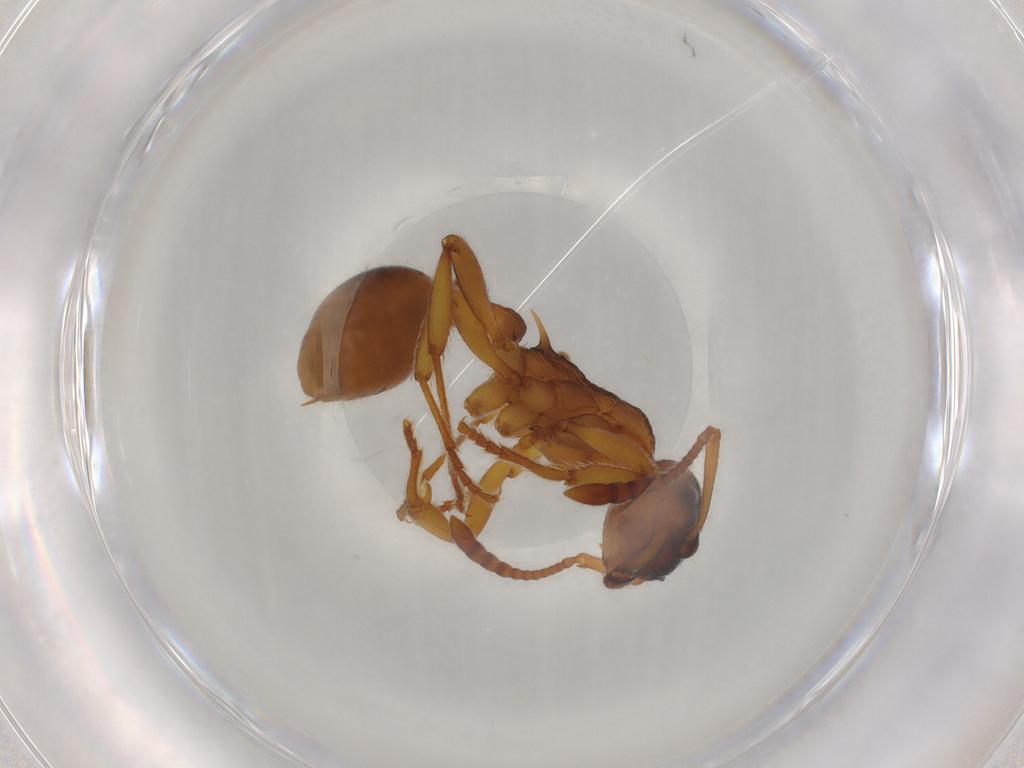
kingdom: Animalia
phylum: Arthropoda
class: Insecta
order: Hymenoptera
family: Formicidae
